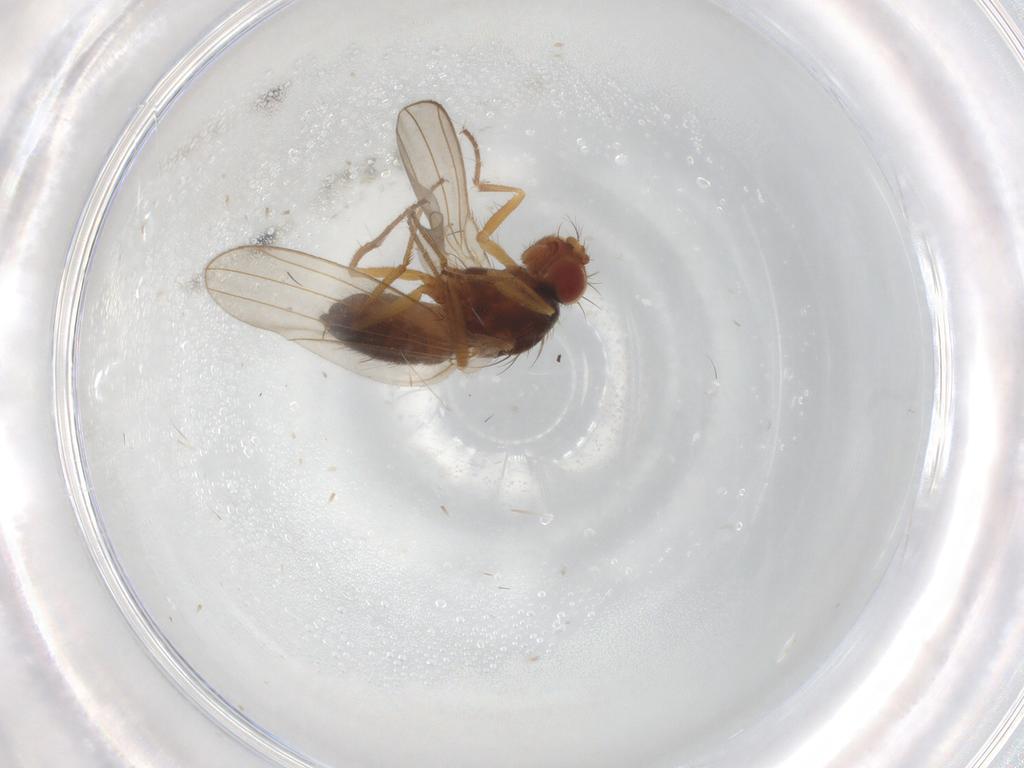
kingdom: Animalia
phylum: Arthropoda
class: Insecta
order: Diptera
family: Drosophilidae
